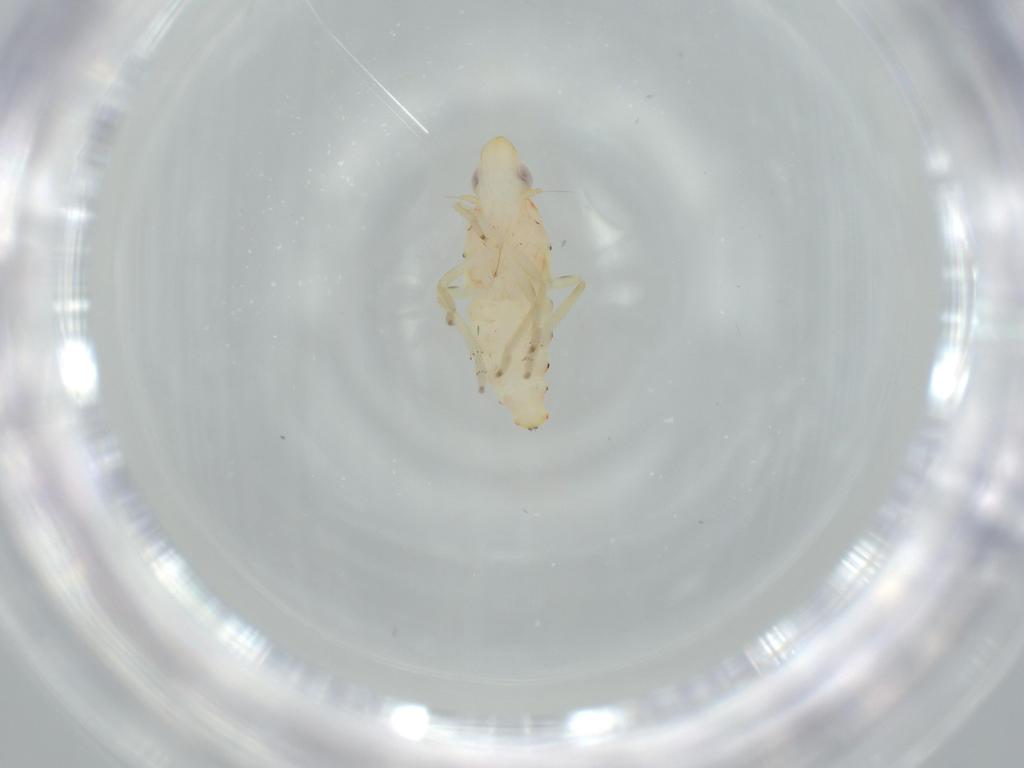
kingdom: Animalia
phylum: Arthropoda
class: Insecta
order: Hemiptera
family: Tropiduchidae
